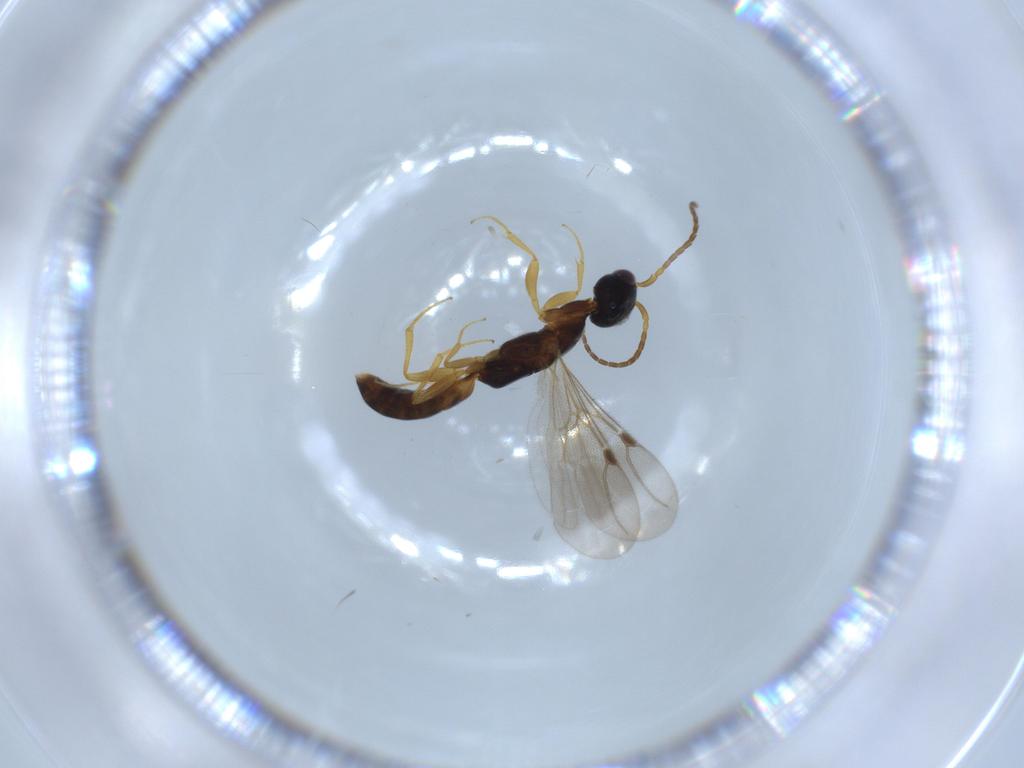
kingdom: Animalia
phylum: Arthropoda
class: Insecta
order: Hymenoptera
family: Bethylidae
